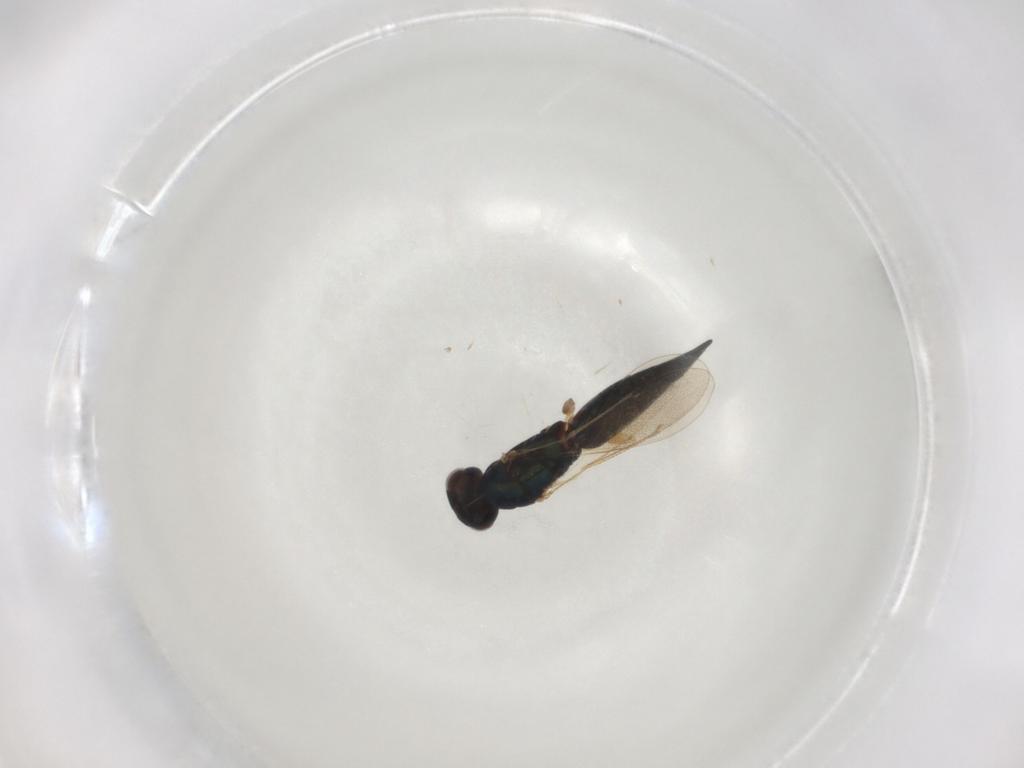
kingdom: Animalia
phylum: Arthropoda
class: Insecta
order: Hymenoptera
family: Eulophidae
